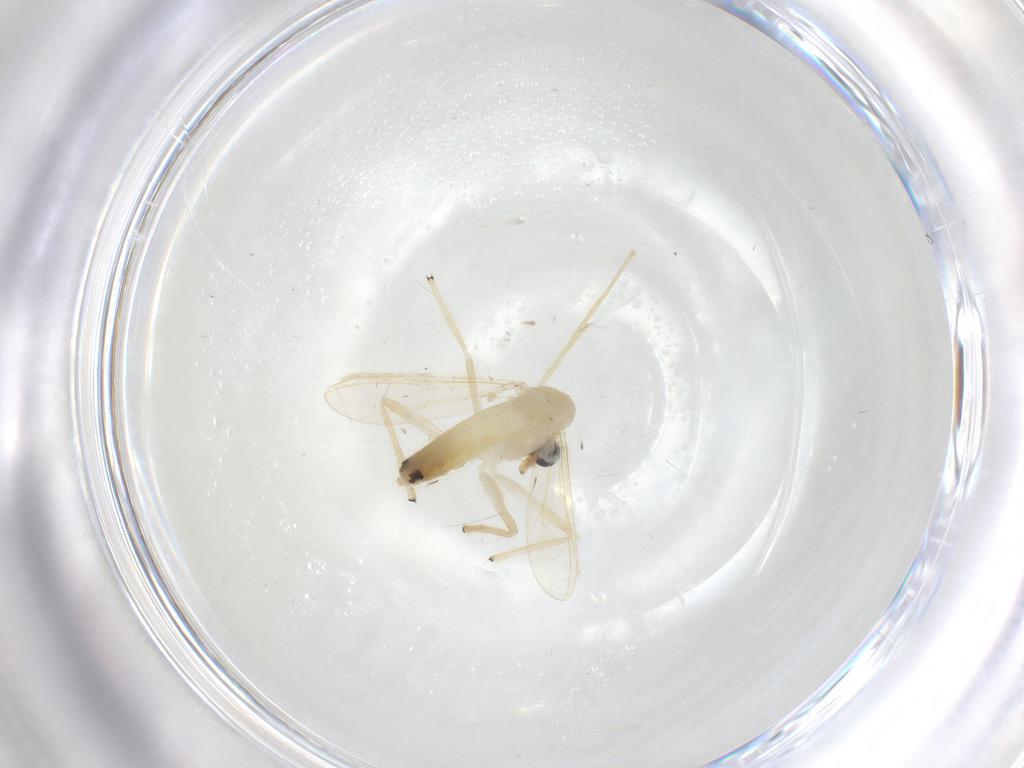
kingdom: Animalia
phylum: Arthropoda
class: Insecta
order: Diptera
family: Chironomidae
